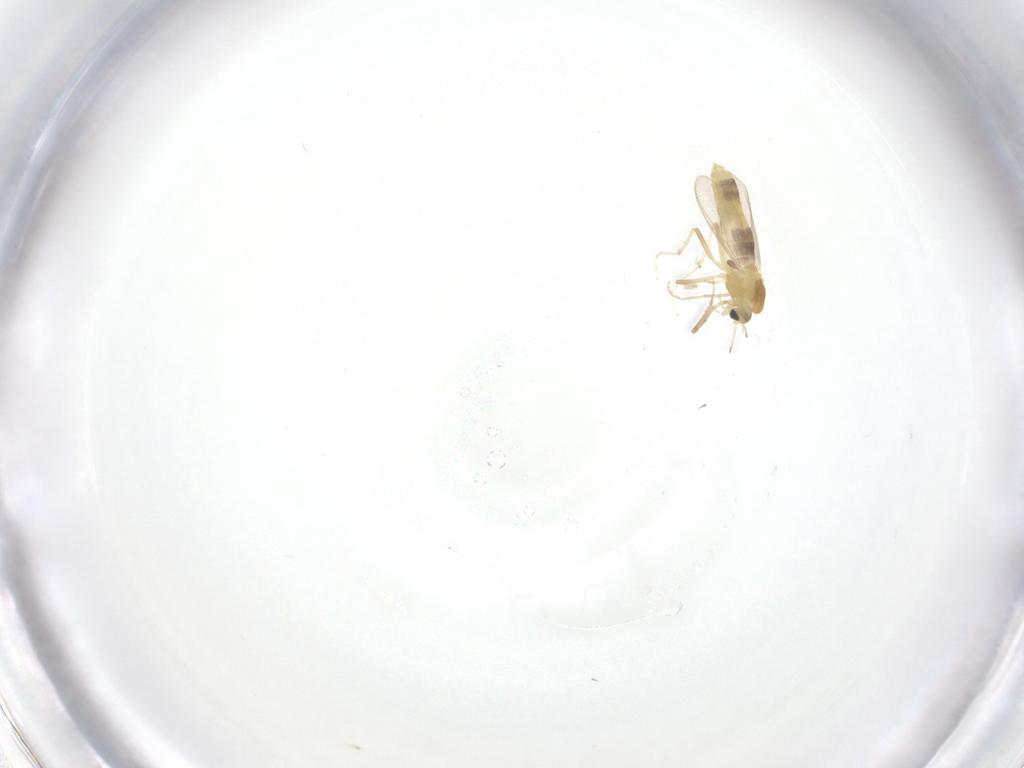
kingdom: Animalia
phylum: Arthropoda
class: Insecta
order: Diptera
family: Chironomidae
